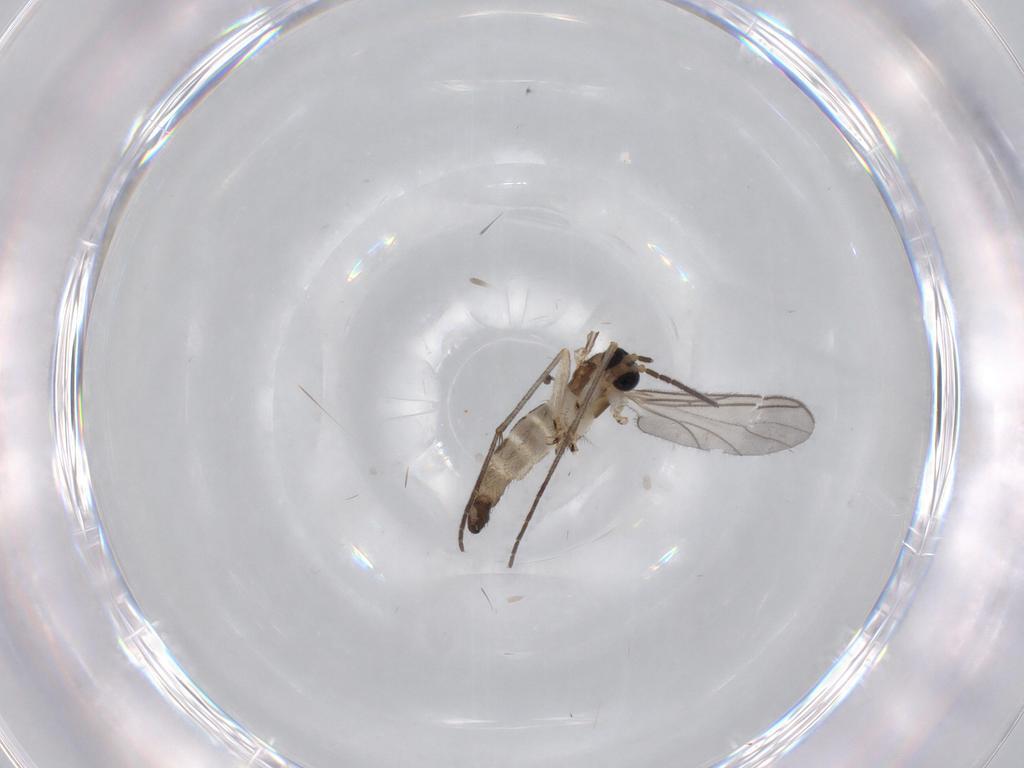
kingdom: Animalia
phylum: Arthropoda
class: Insecta
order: Diptera
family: Sciaridae
